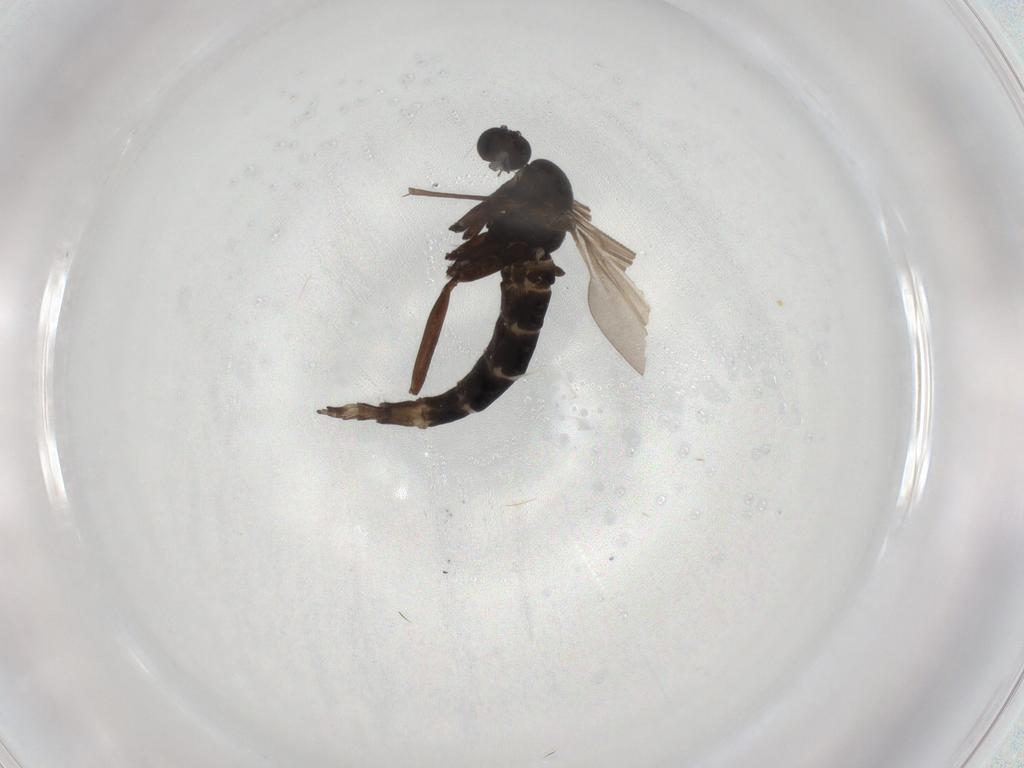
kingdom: Animalia
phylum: Arthropoda
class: Insecta
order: Diptera
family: Sciaridae
